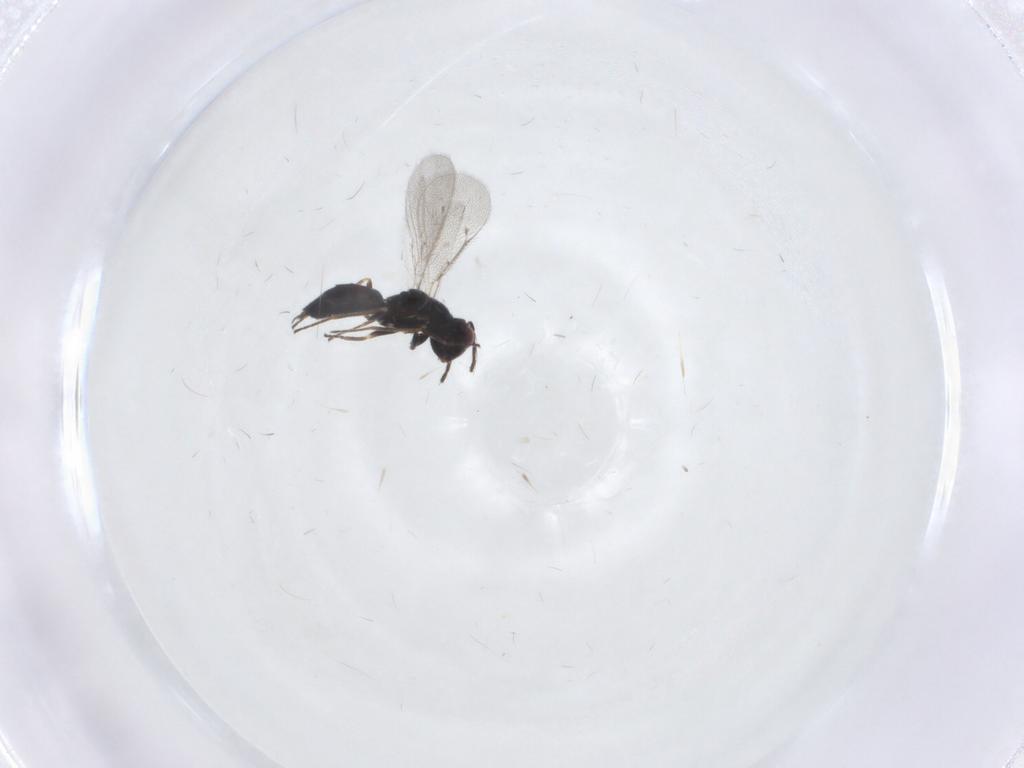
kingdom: Animalia
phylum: Arthropoda
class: Insecta
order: Hymenoptera
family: Eulophidae
